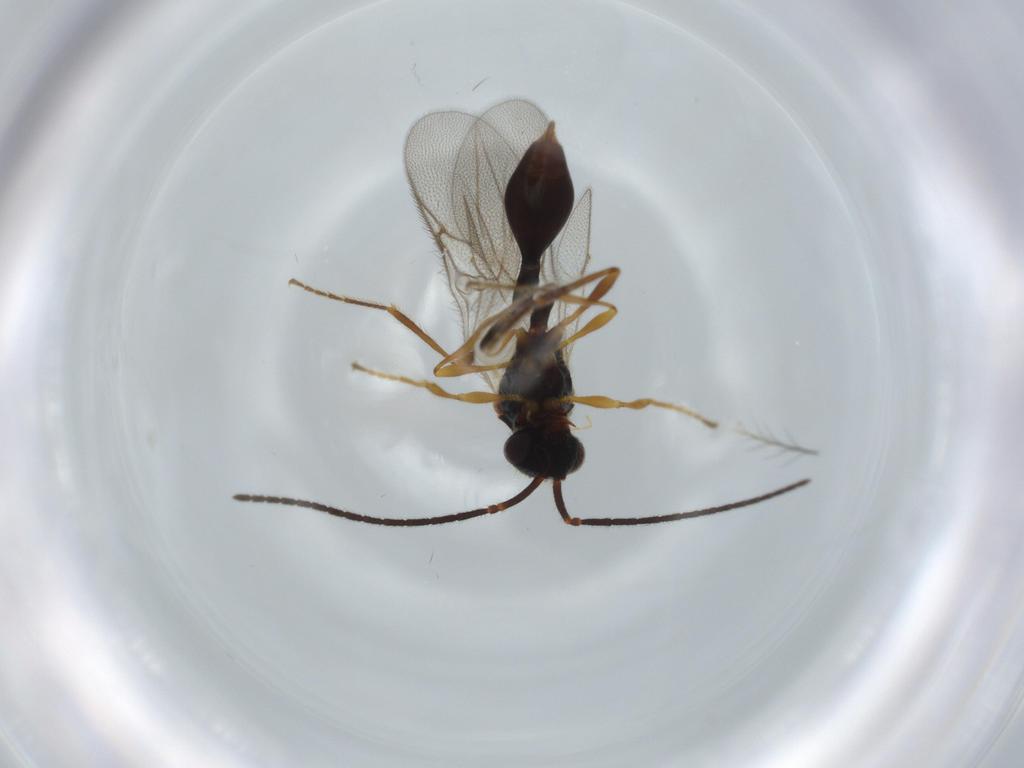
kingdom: Animalia
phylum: Arthropoda
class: Insecta
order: Hymenoptera
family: Diapriidae
